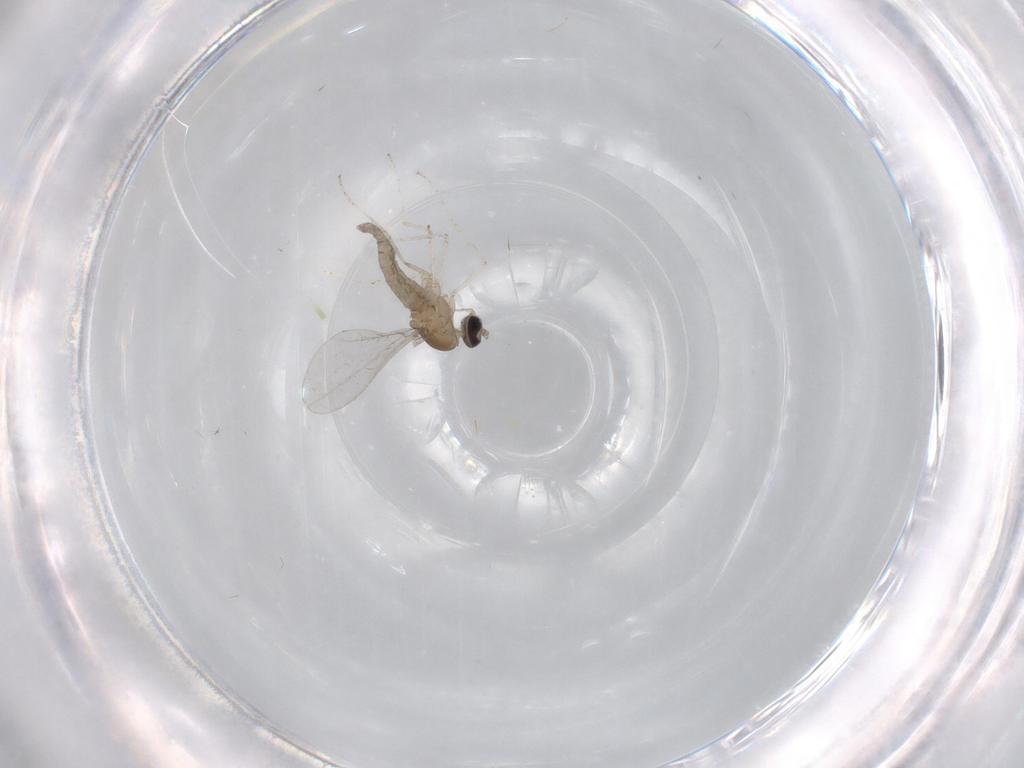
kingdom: Animalia
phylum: Arthropoda
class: Insecta
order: Diptera
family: Cecidomyiidae
